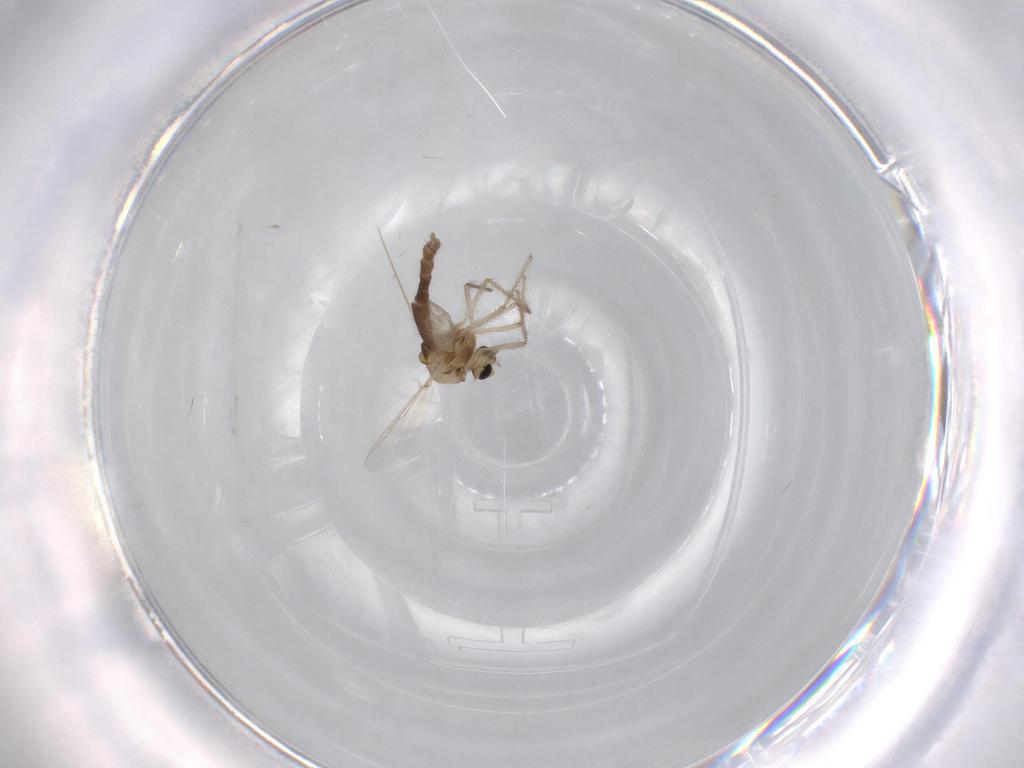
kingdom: Animalia
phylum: Arthropoda
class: Insecta
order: Diptera
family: Chironomidae
